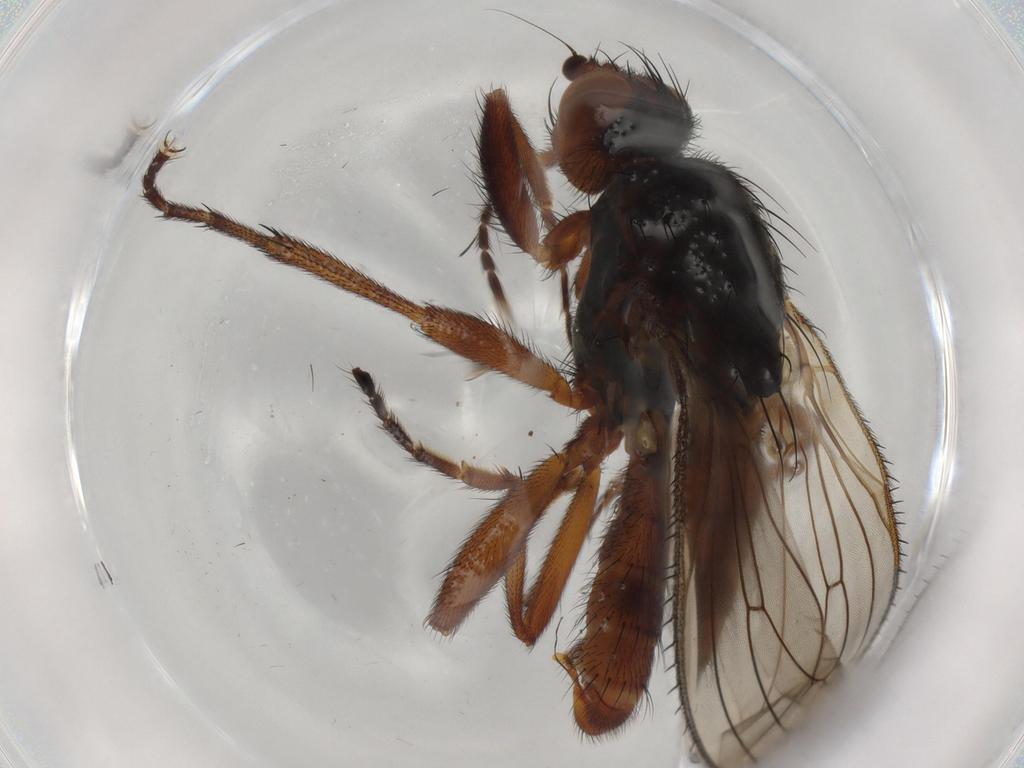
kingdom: Animalia
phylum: Arthropoda
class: Insecta
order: Diptera
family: Heleomyzidae
